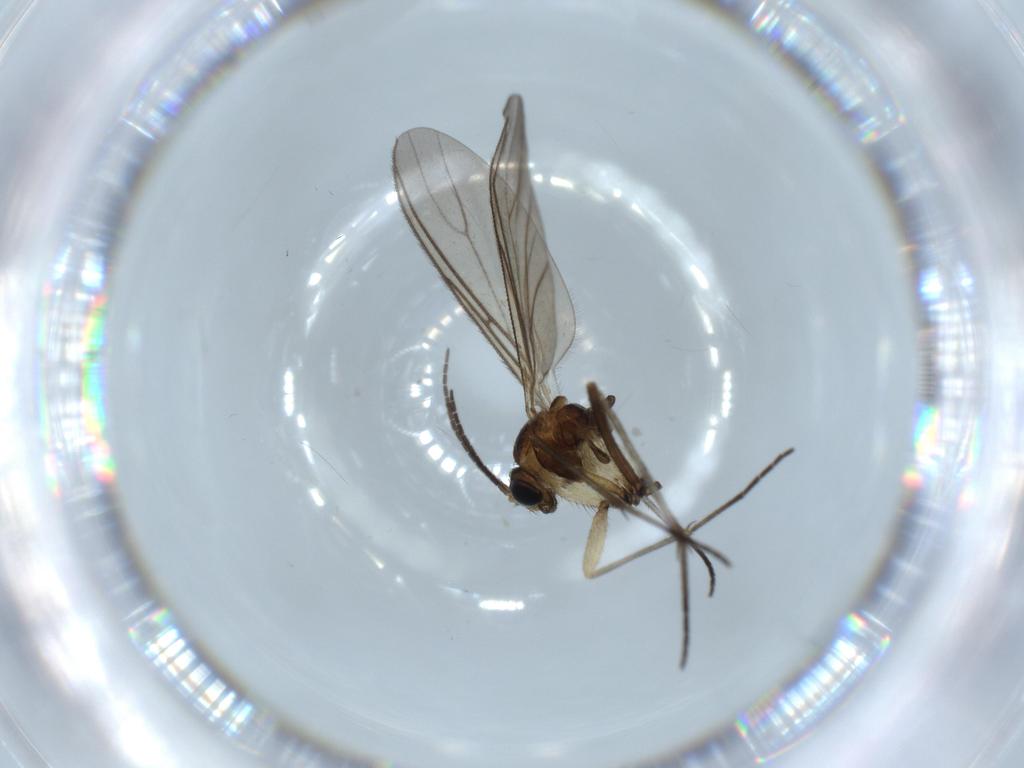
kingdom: Animalia
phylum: Arthropoda
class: Insecta
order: Diptera
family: Sciaridae
